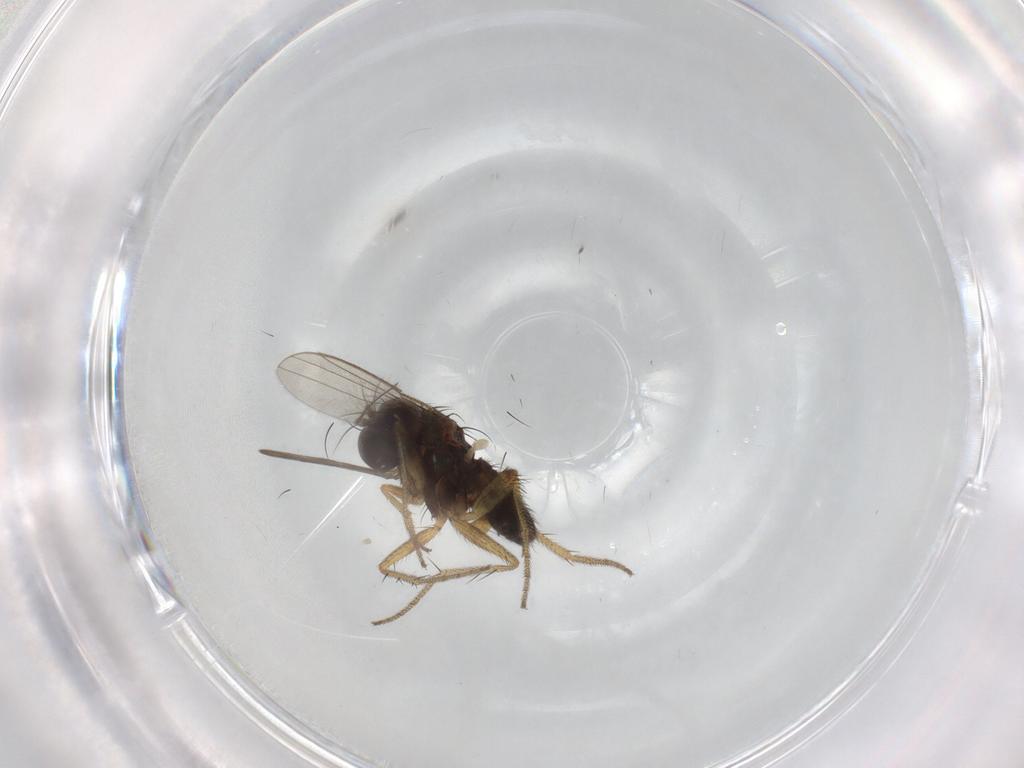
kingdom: Animalia
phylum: Arthropoda
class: Insecta
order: Diptera
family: Dolichopodidae
